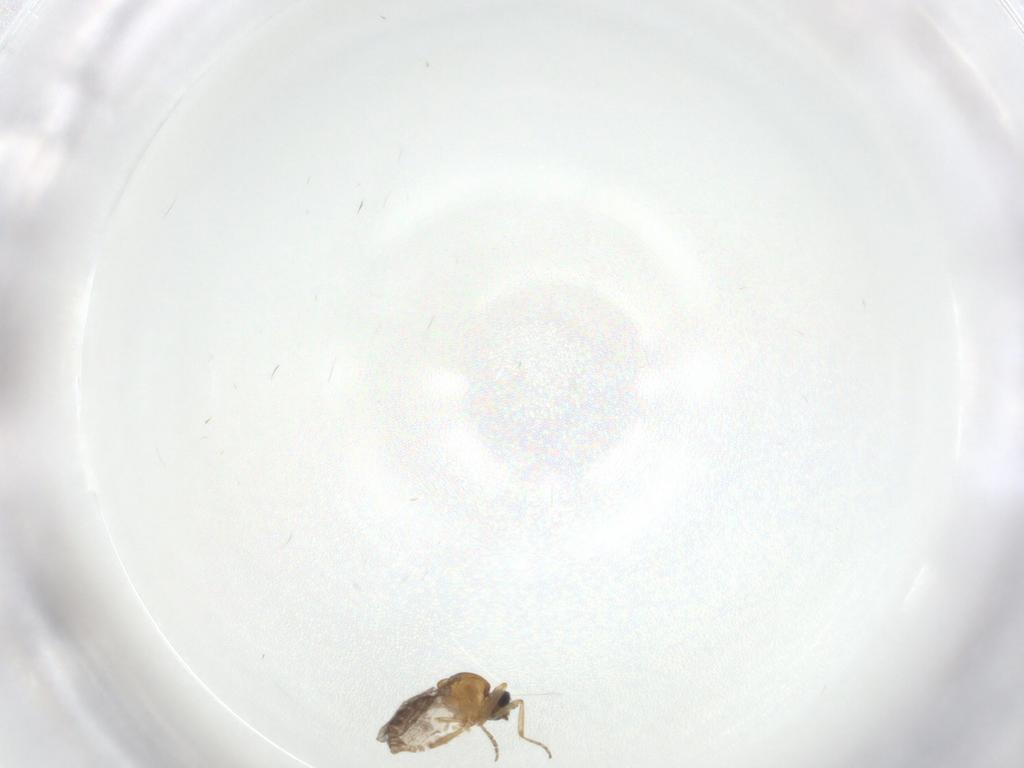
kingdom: Animalia
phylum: Arthropoda
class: Insecta
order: Diptera
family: Ceratopogonidae
